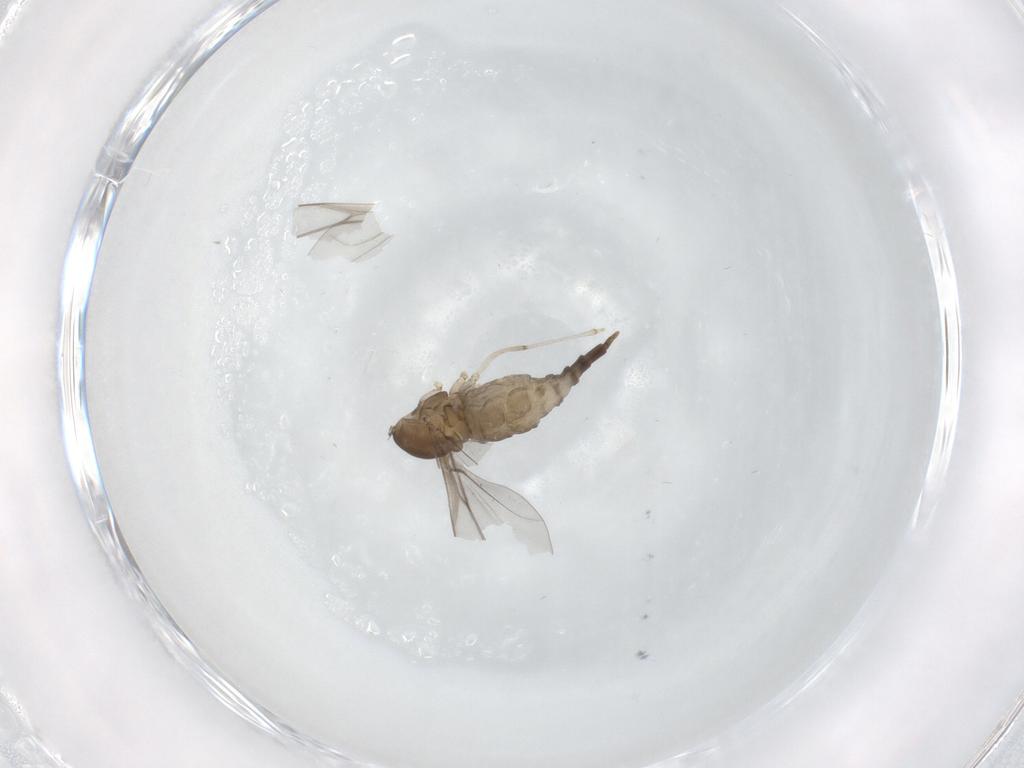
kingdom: Animalia
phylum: Arthropoda
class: Insecta
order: Diptera
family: Cecidomyiidae
